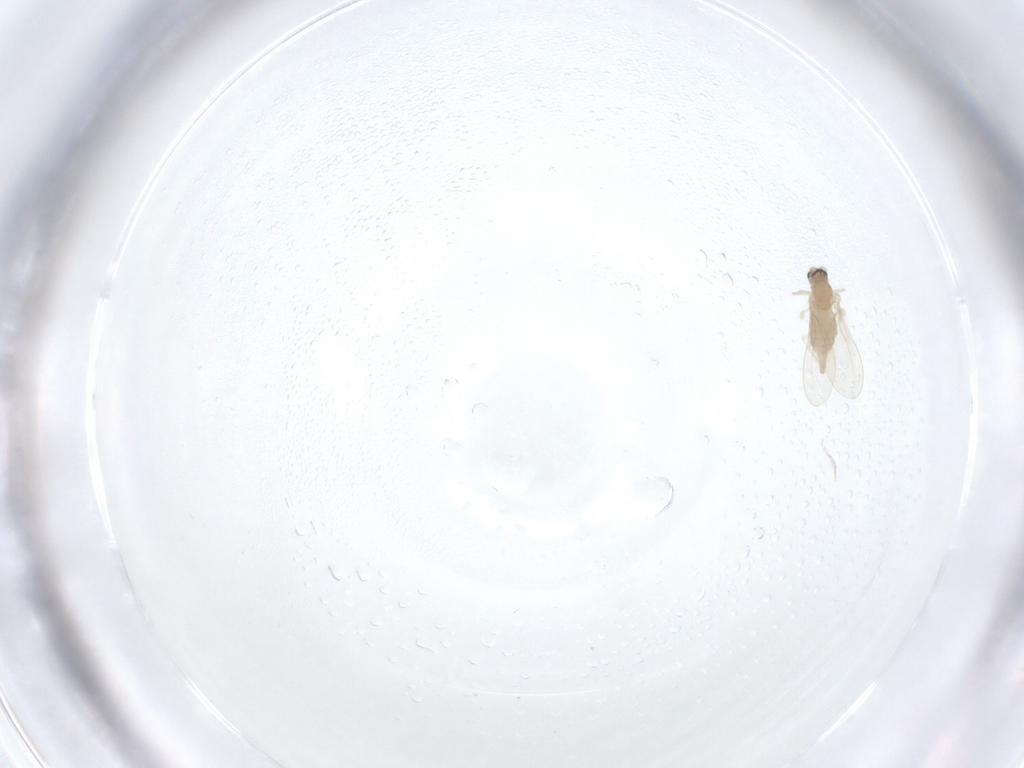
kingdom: Animalia
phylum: Arthropoda
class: Insecta
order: Diptera
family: Cecidomyiidae
